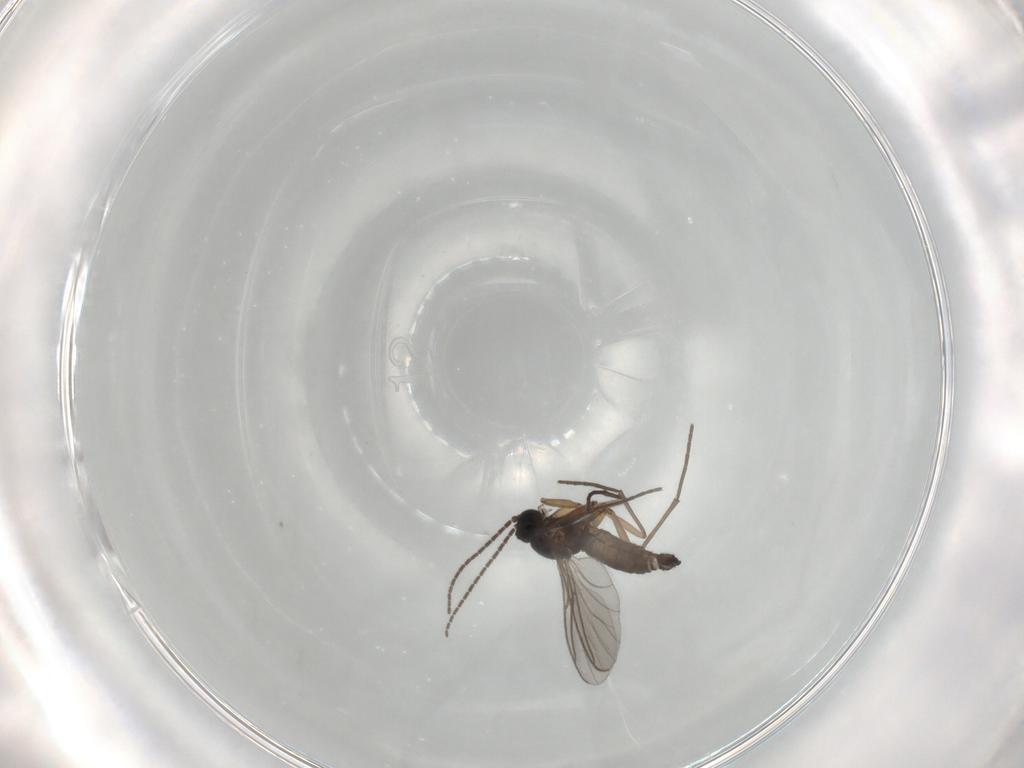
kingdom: Animalia
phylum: Arthropoda
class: Insecta
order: Diptera
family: Sciaridae
